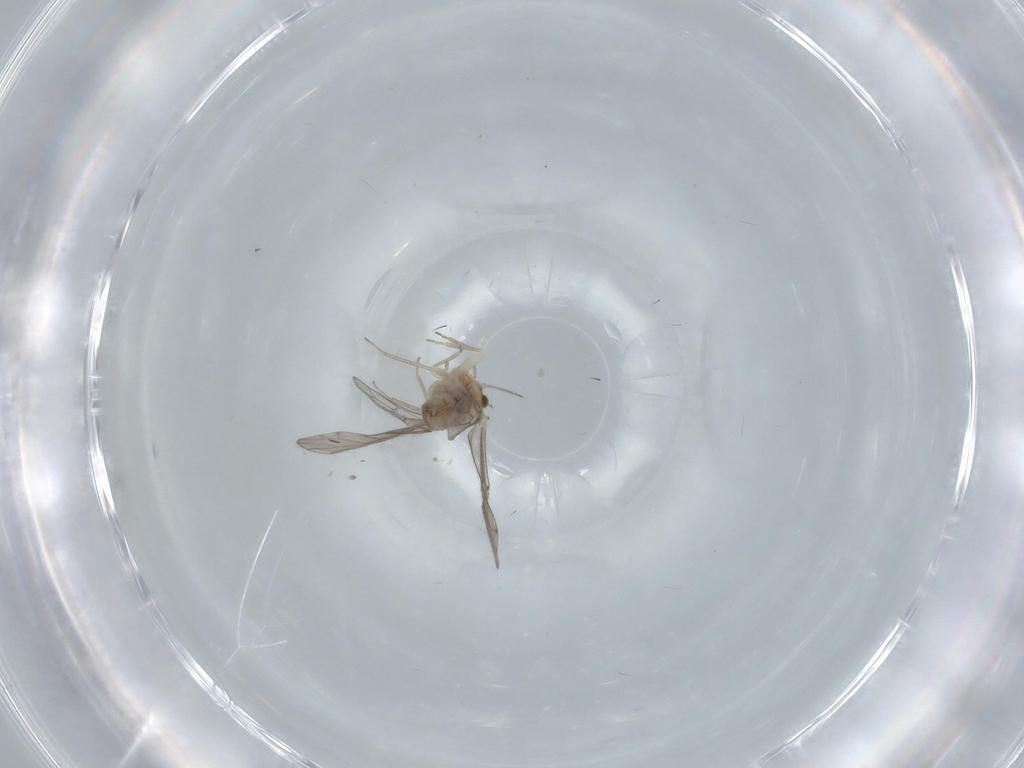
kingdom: Animalia
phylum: Arthropoda
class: Insecta
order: Psocodea
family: Ectopsocidae
